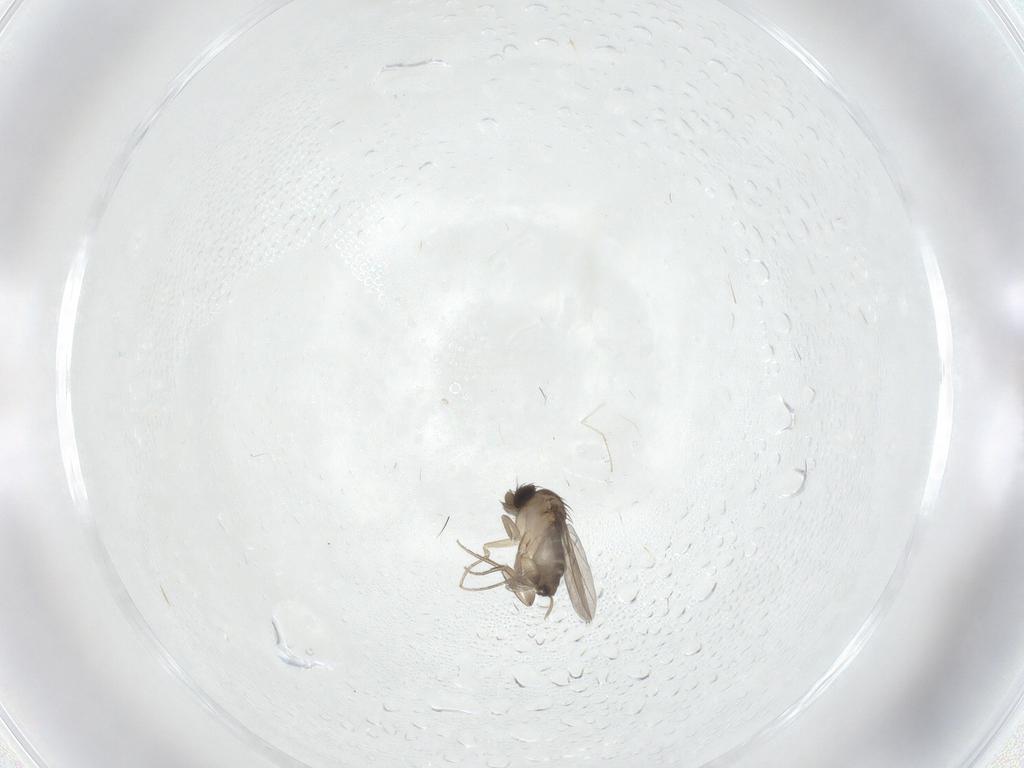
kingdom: Animalia
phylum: Arthropoda
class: Insecta
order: Diptera
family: Phoridae
